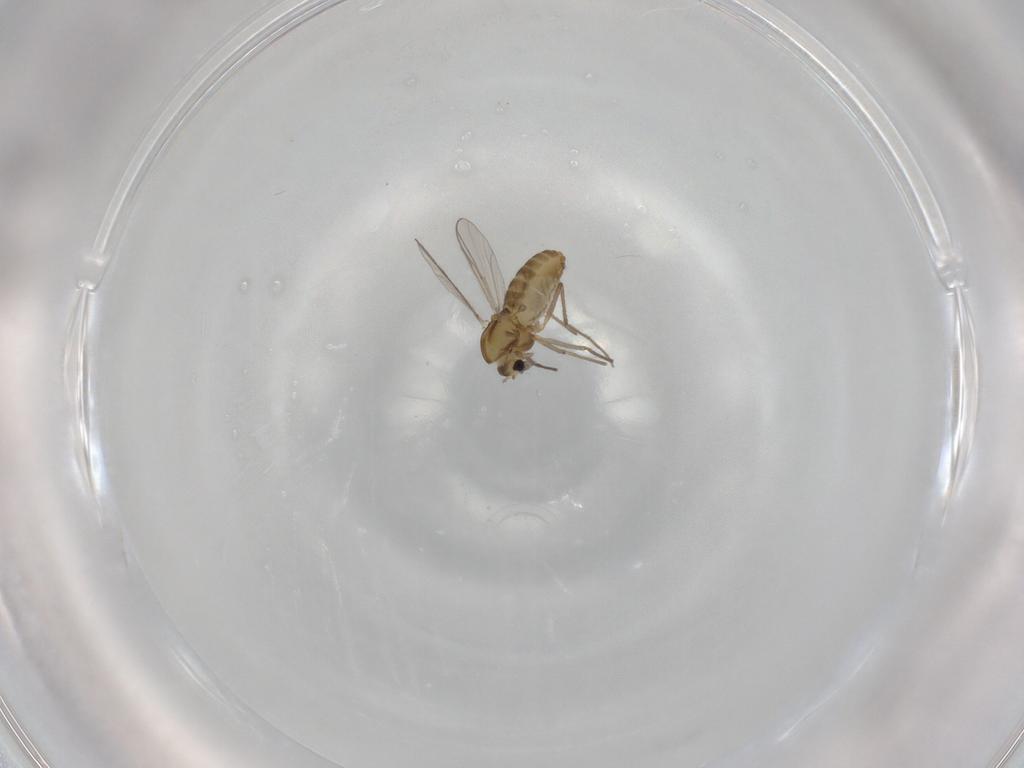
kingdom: Animalia
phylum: Arthropoda
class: Insecta
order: Diptera
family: Chironomidae
